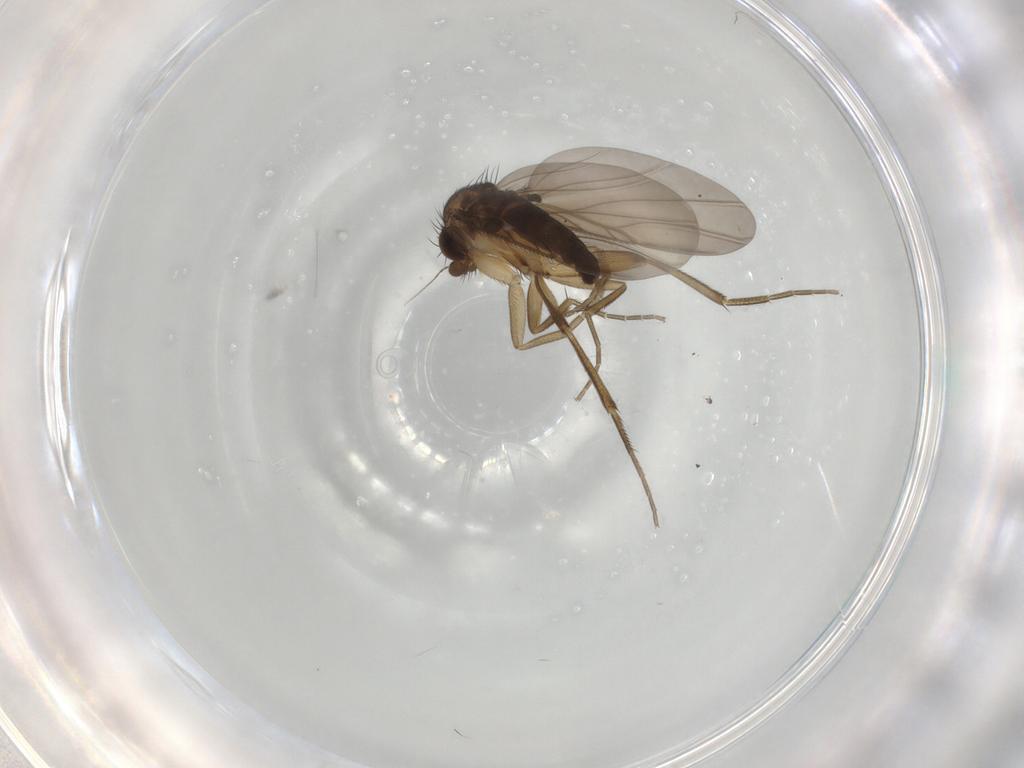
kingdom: Animalia
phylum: Arthropoda
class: Insecta
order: Diptera
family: Phoridae
